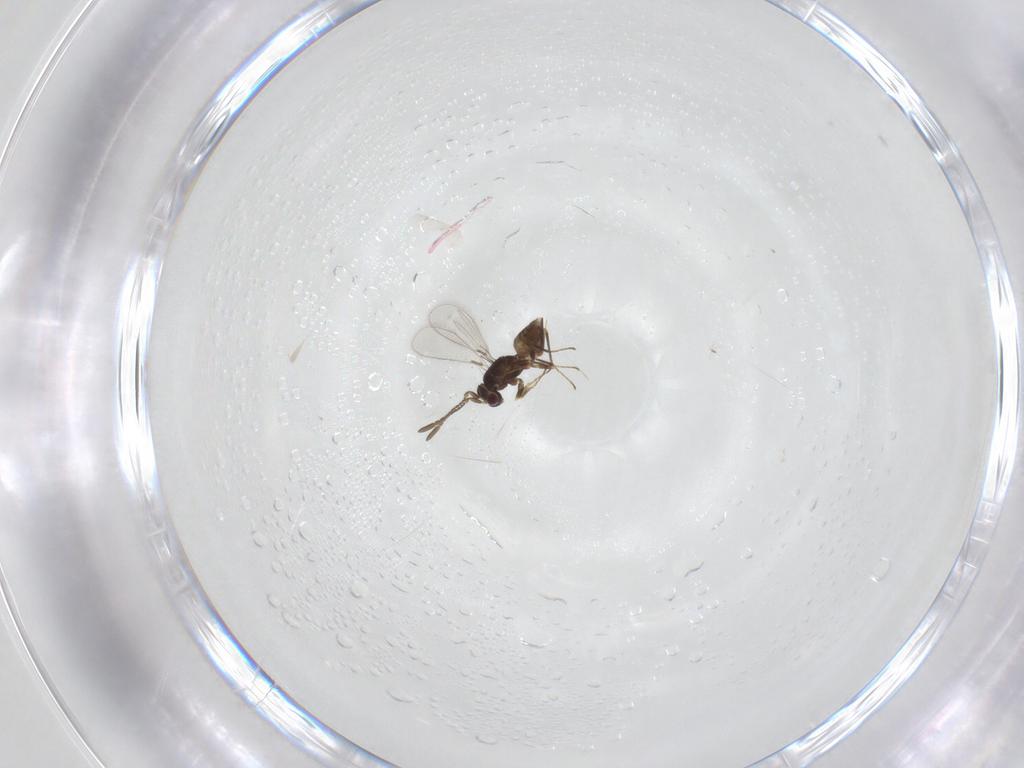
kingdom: Animalia
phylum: Arthropoda
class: Insecta
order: Hymenoptera
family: Mymaridae
